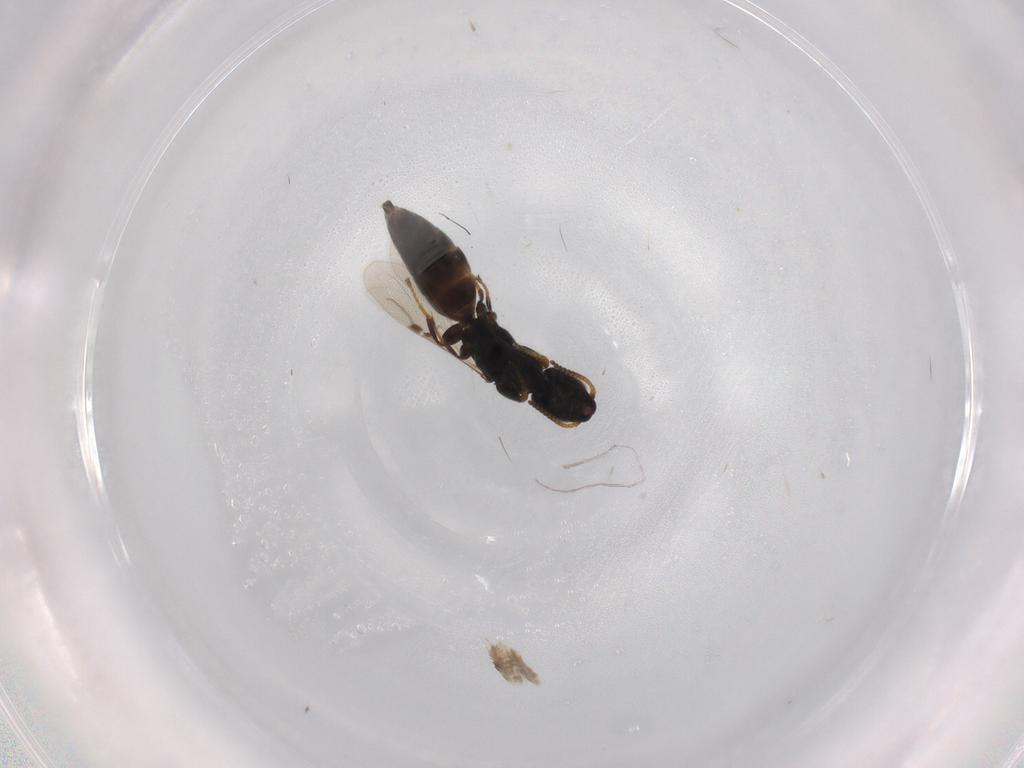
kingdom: Animalia
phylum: Arthropoda
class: Insecta
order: Hymenoptera
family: Bethylidae
